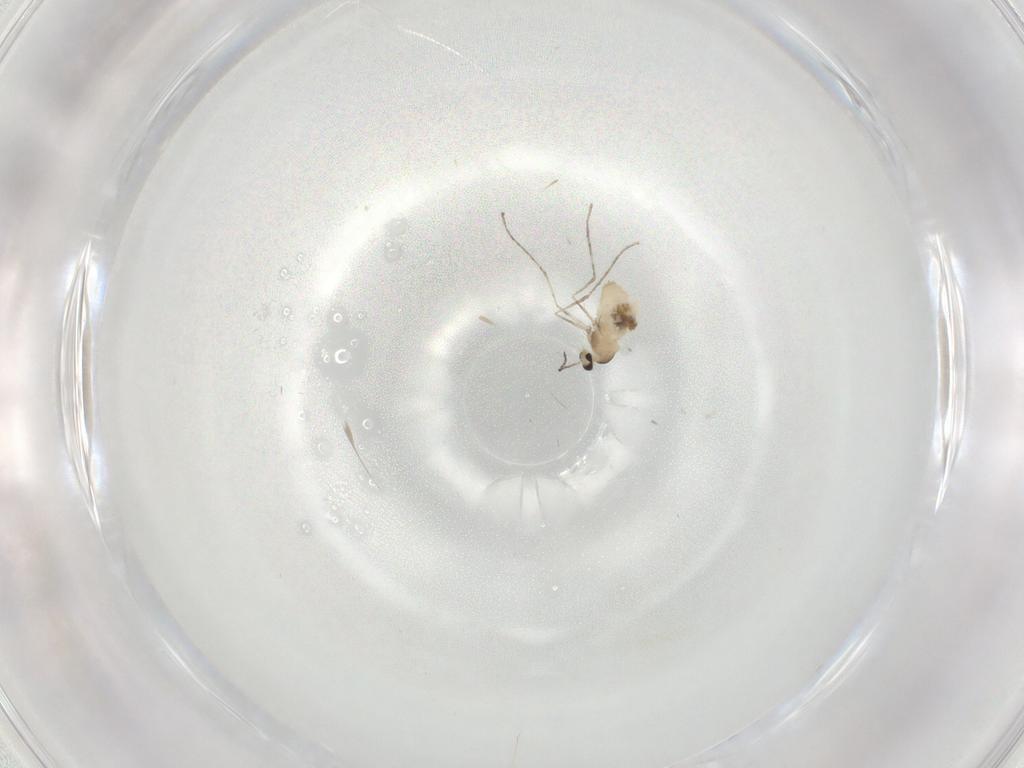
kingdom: Animalia
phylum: Arthropoda
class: Insecta
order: Diptera
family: Cecidomyiidae
